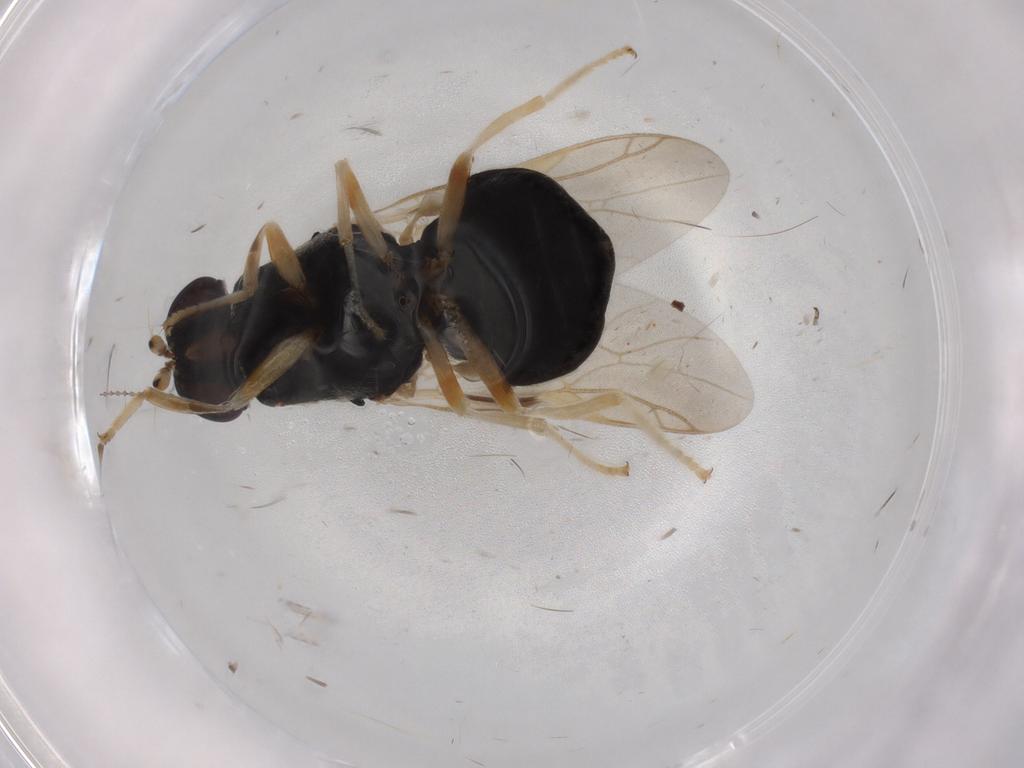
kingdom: Animalia
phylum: Arthropoda
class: Insecta
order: Diptera
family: Stratiomyidae
